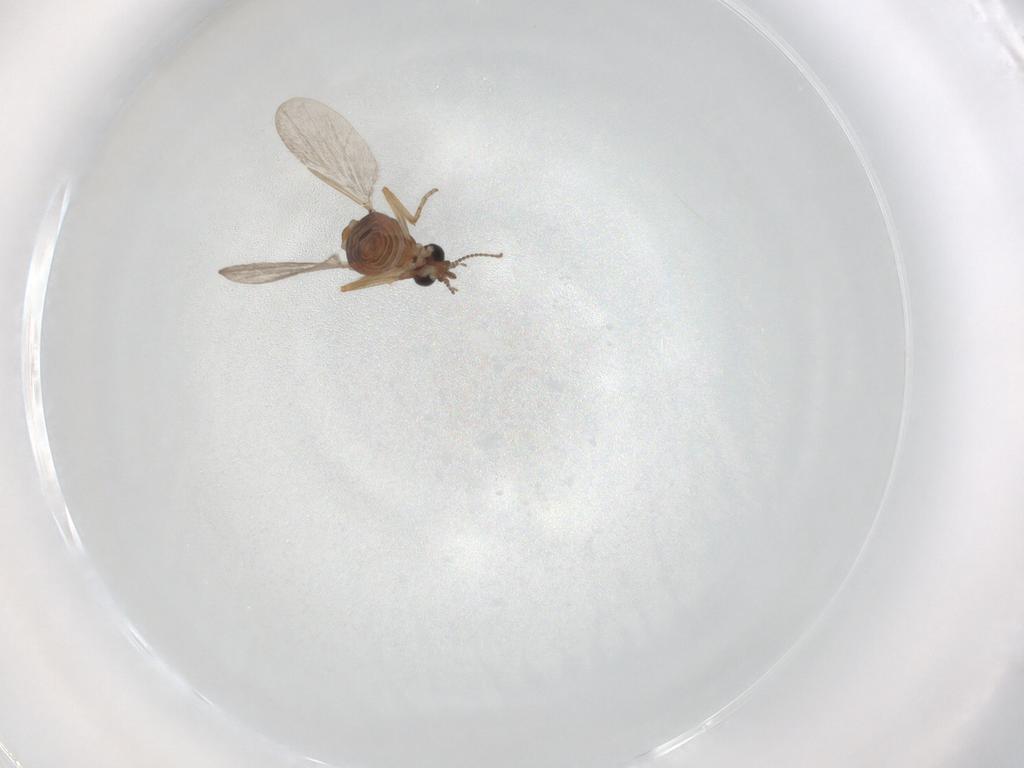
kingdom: Animalia
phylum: Arthropoda
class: Insecta
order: Diptera
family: Ceratopogonidae
